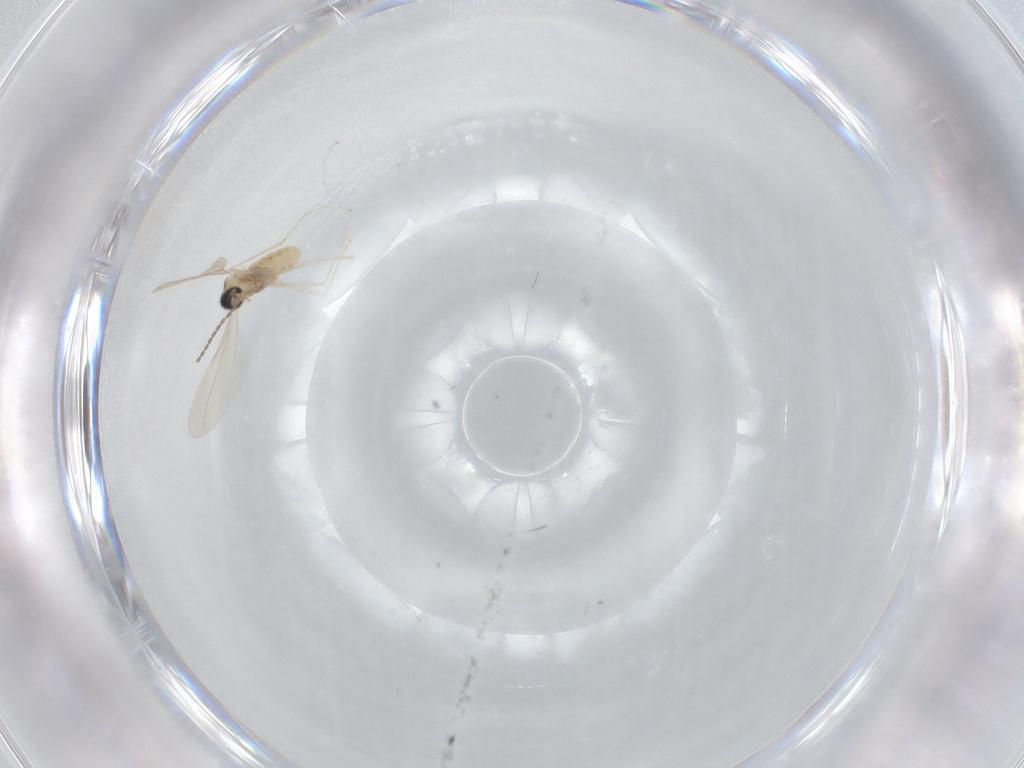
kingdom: Animalia
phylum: Arthropoda
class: Insecta
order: Diptera
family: Cecidomyiidae
